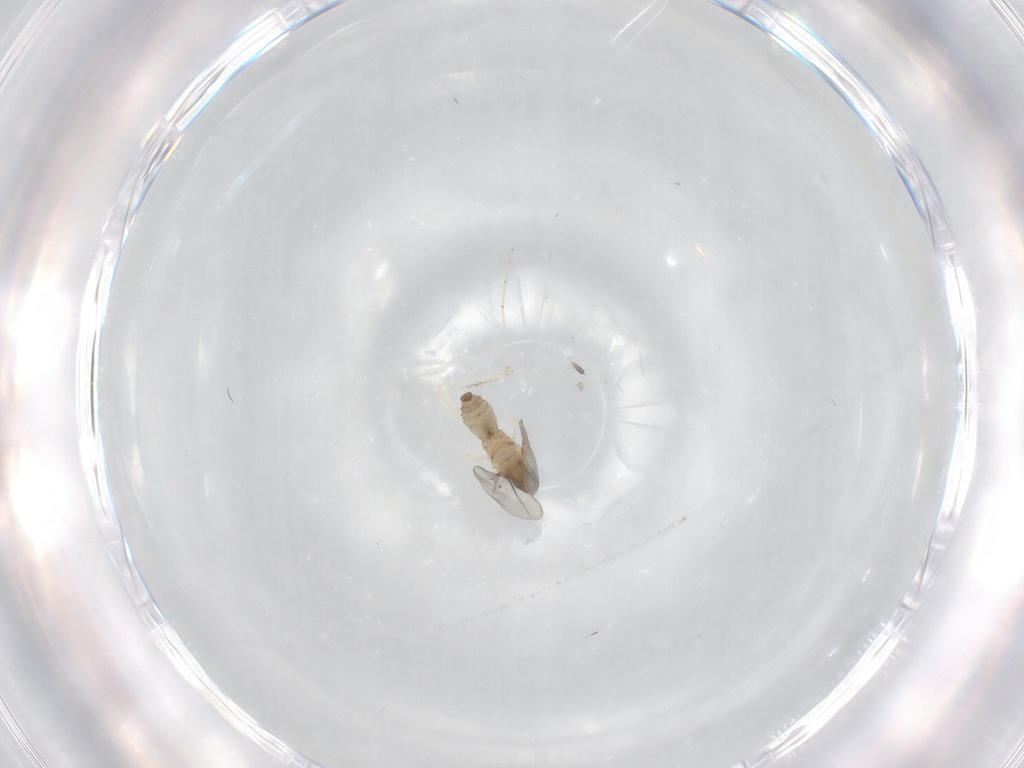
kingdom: Animalia
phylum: Arthropoda
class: Insecta
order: Diptera
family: Cecidomyiidae
